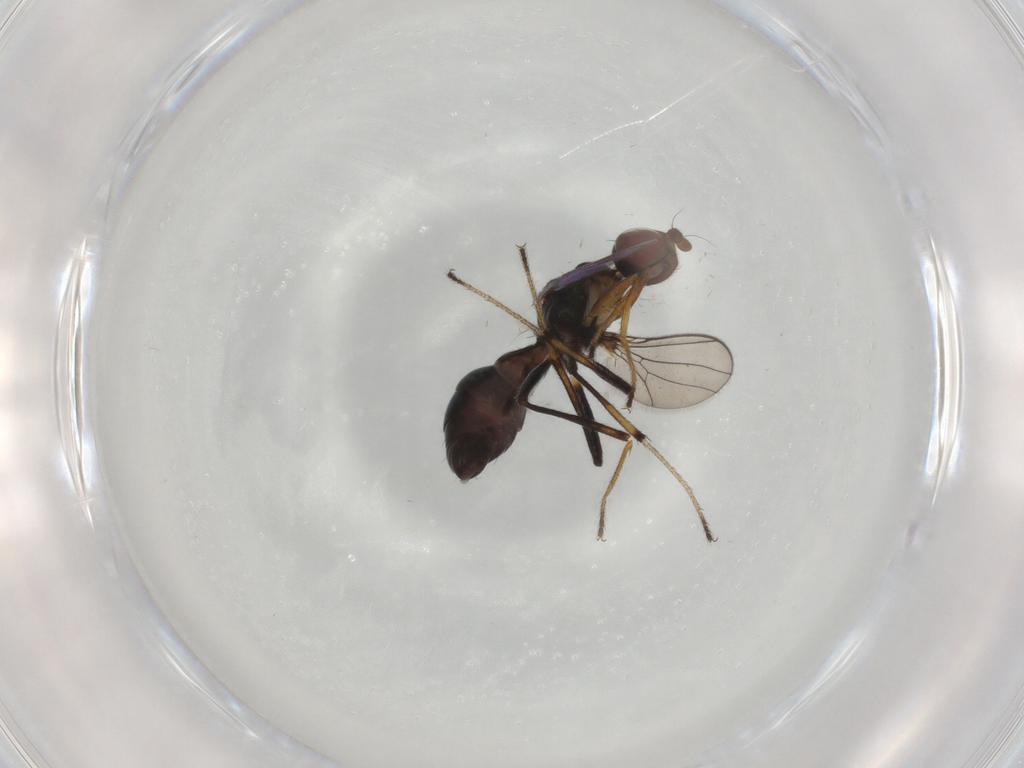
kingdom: Animalia
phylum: Arthropoda
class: Insecta
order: Diptera
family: Sepsidae
